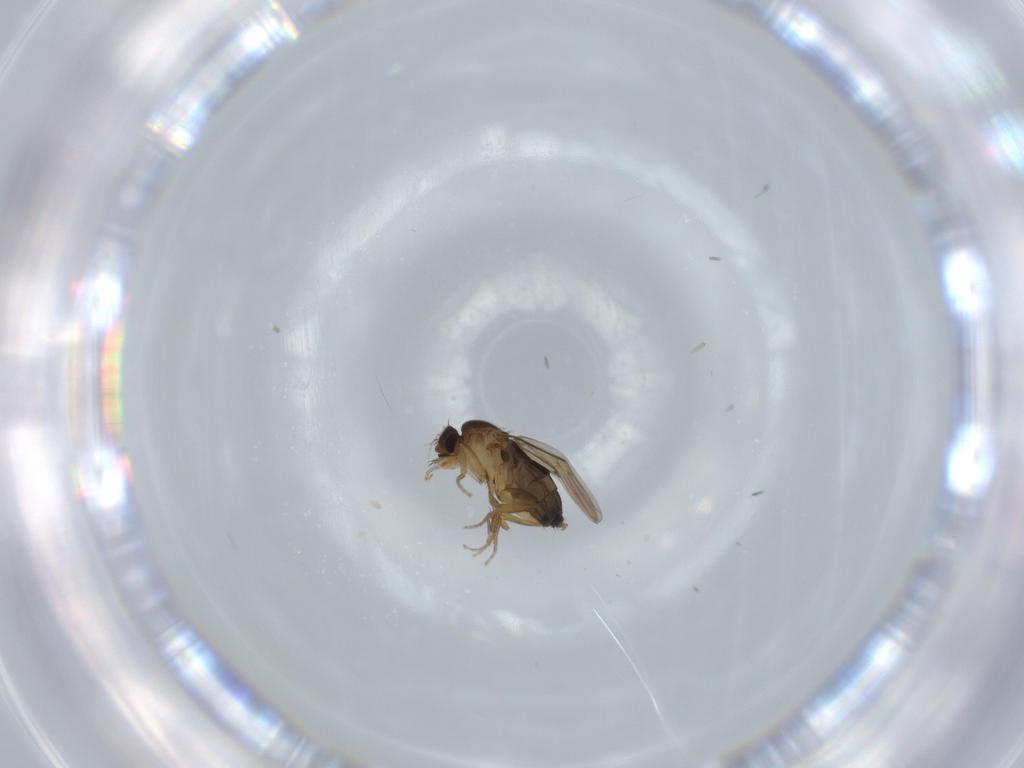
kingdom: Animalia
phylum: Arthropoda
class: Insecta
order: Diptera
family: Phoridae
